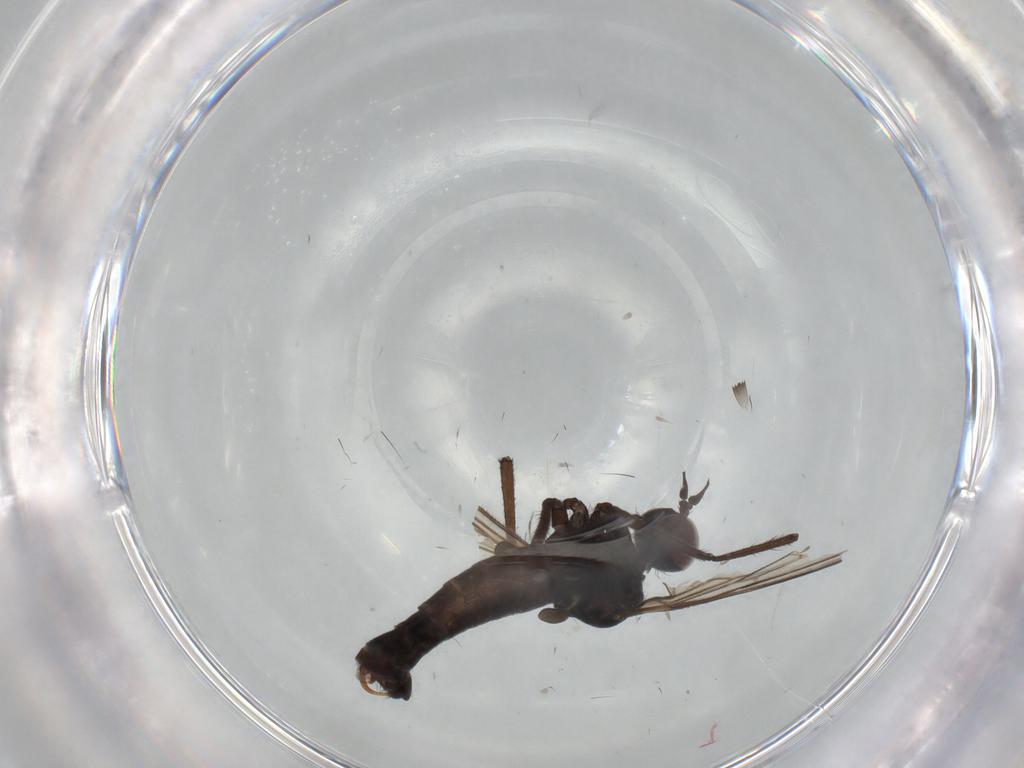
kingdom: Animalia
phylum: Arthropoda
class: Insecta
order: Diptera
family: Empididae
